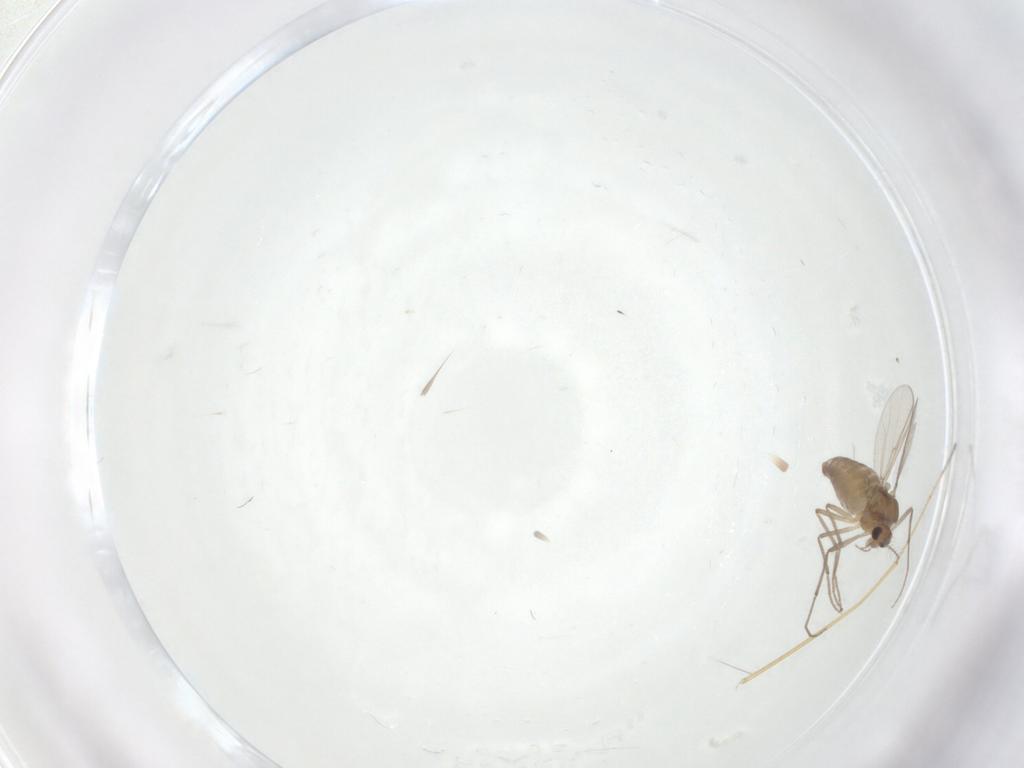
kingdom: Animalia
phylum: Arthropoda
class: Insecta
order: Diptera
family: Chironomidae
